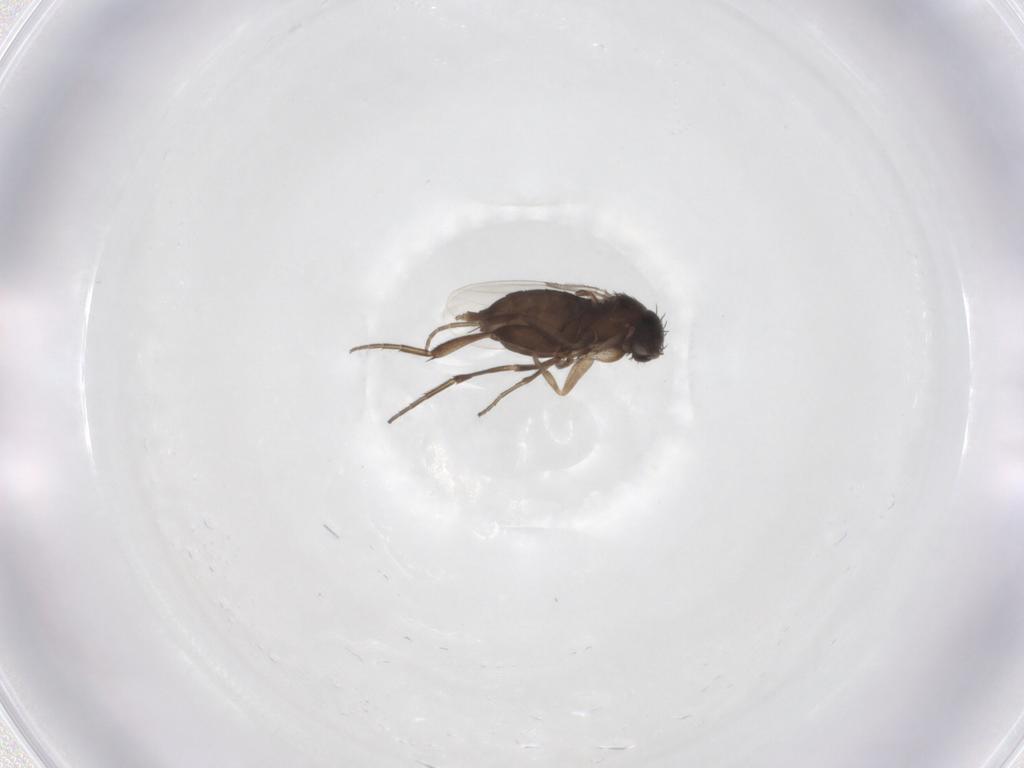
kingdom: Animalia
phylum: Arthropoda
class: Insecta
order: Diptera
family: Phoridae
